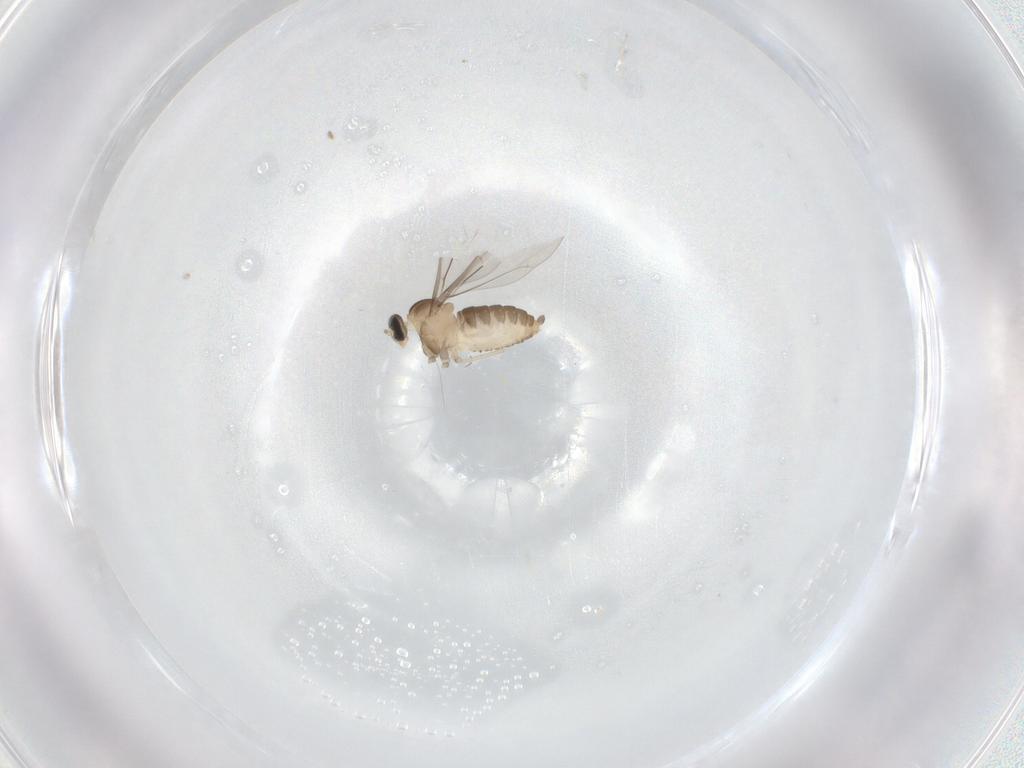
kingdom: Animalia
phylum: Arthropoda
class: Insecta
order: Diptera
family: Cecidomyiidae
